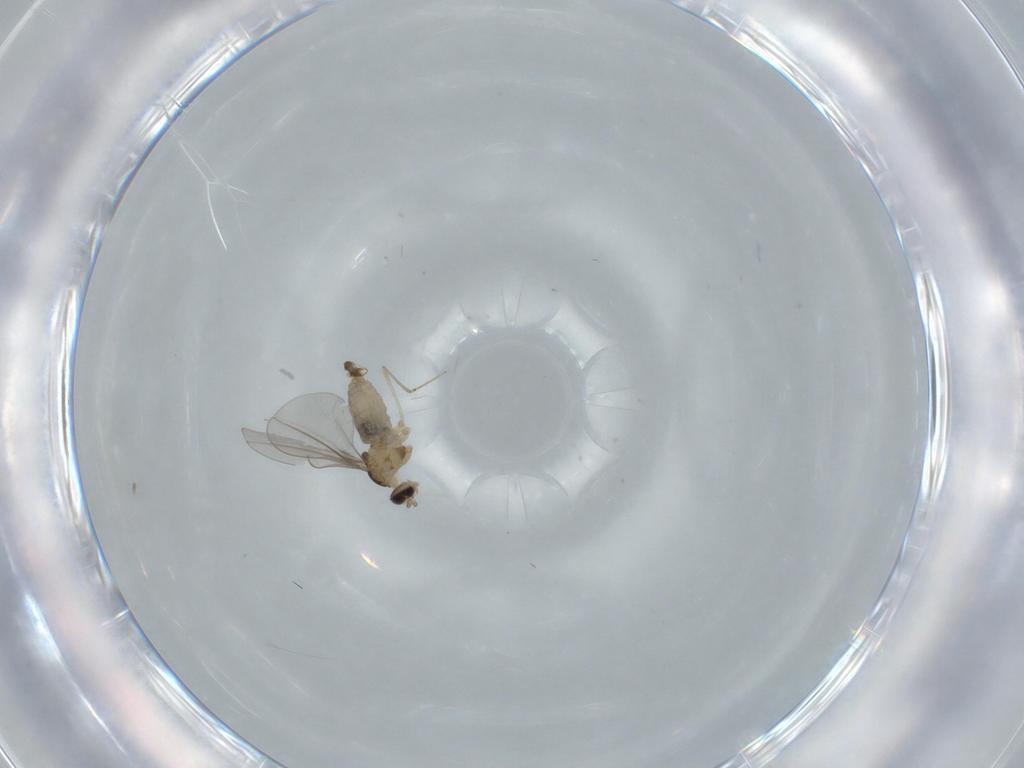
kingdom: Animalia
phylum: Arthropoda
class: Insecta
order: Diptera
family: Cecidomyiidae
